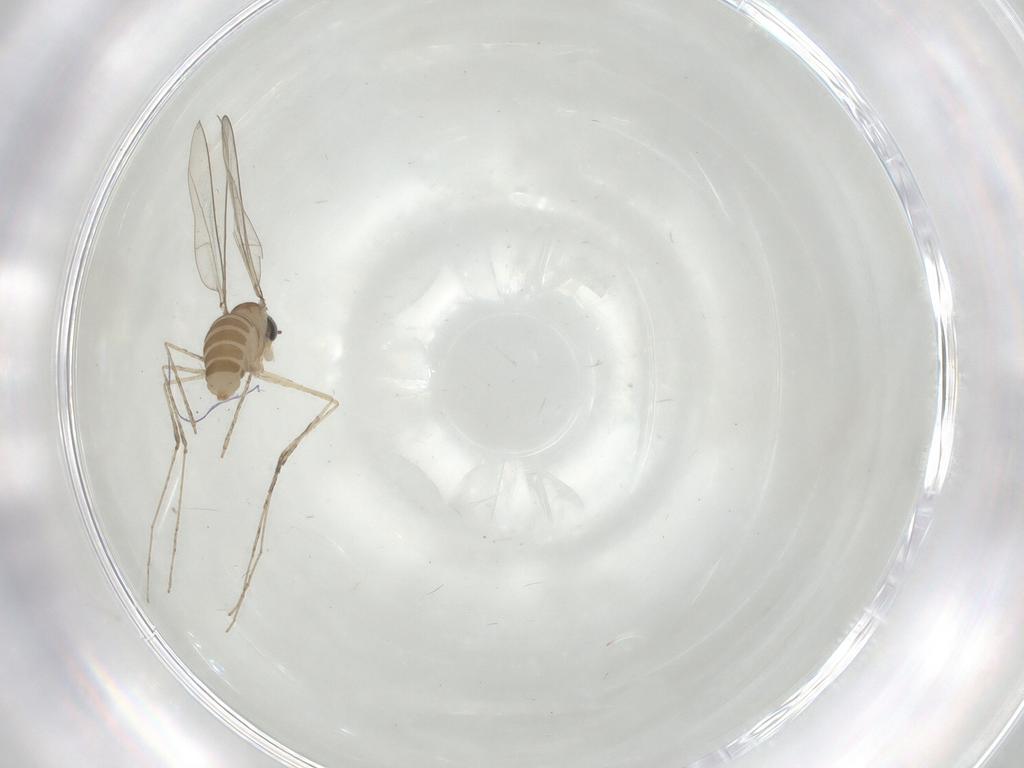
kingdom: Animalia
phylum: Arthropoda
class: Insecta
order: Diptera
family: Cecidomyiidae
